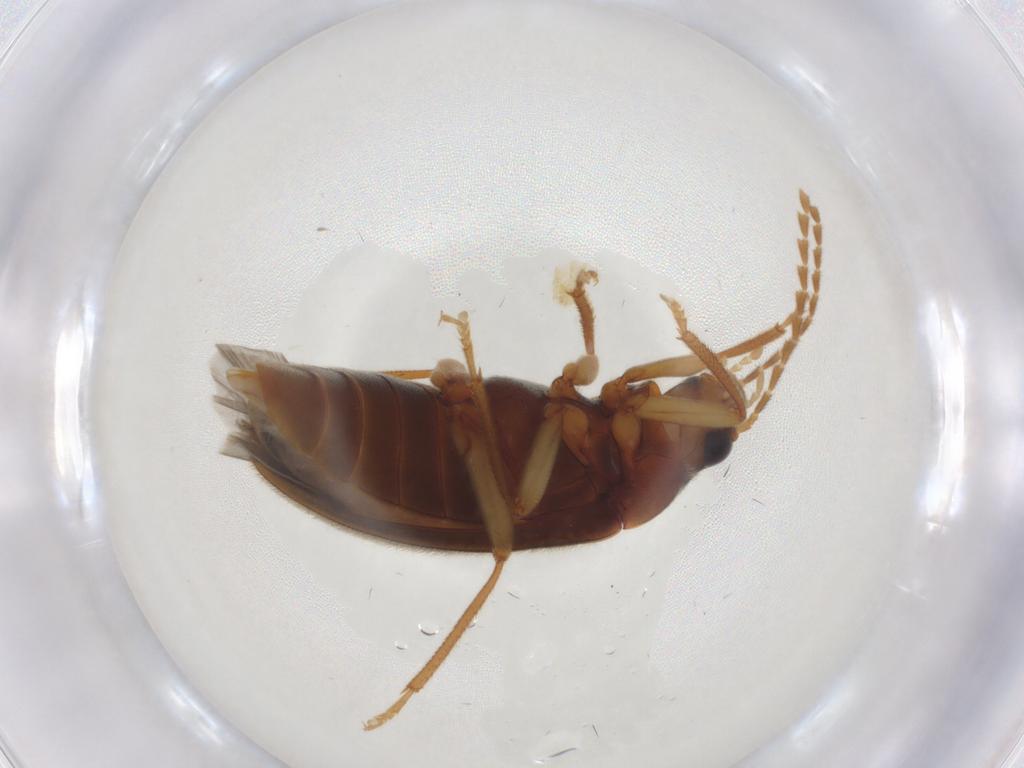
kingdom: Animalia
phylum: Arthropoda
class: Insecta
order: Coleoptera
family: Ptilodactylidae
